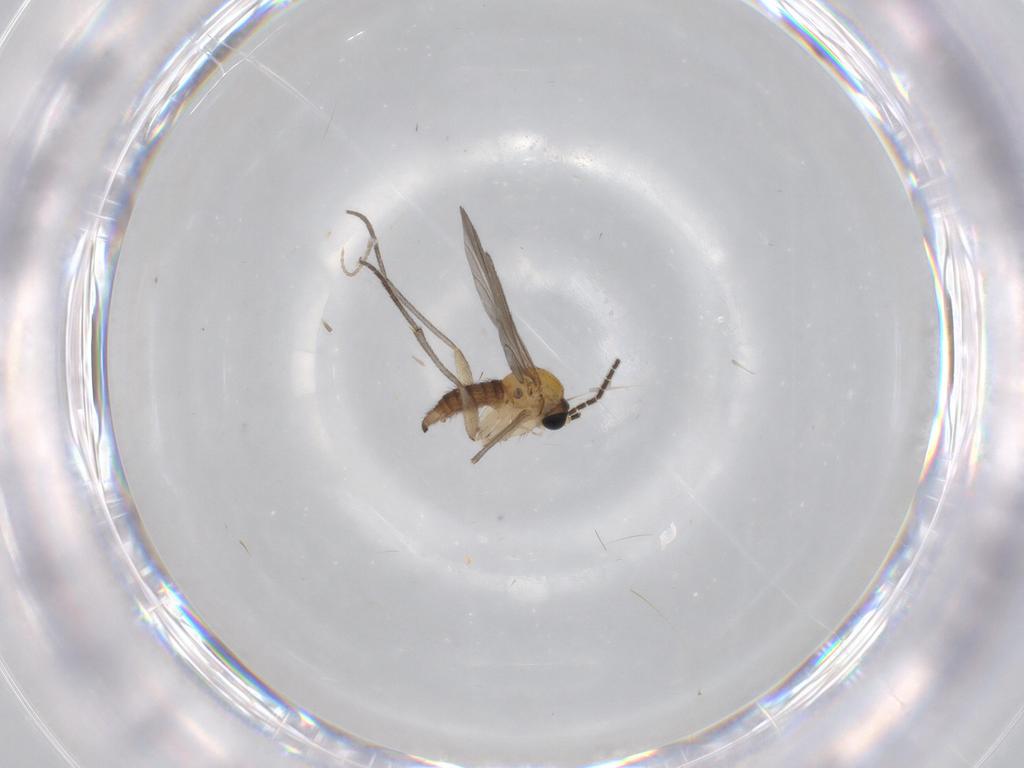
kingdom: Animalia
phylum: Arthropoda
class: Insecta
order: Diptera
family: Sciaridae
